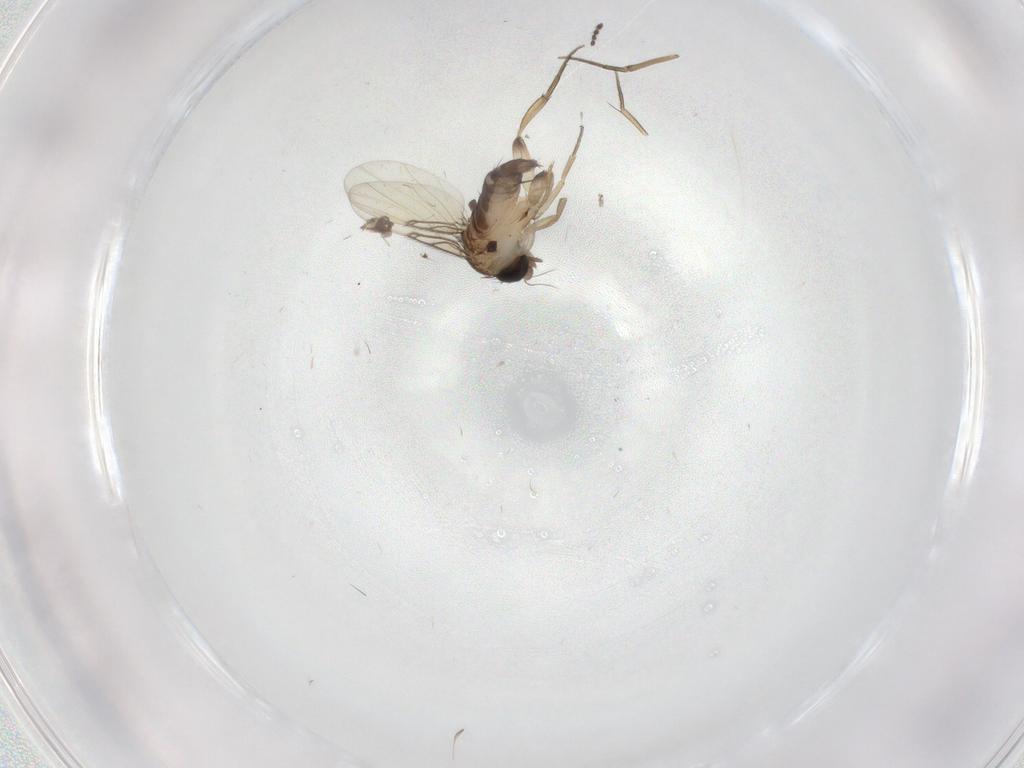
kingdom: Animalia
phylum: Arthropoda
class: Insecta
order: Diptera
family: Phoridae
